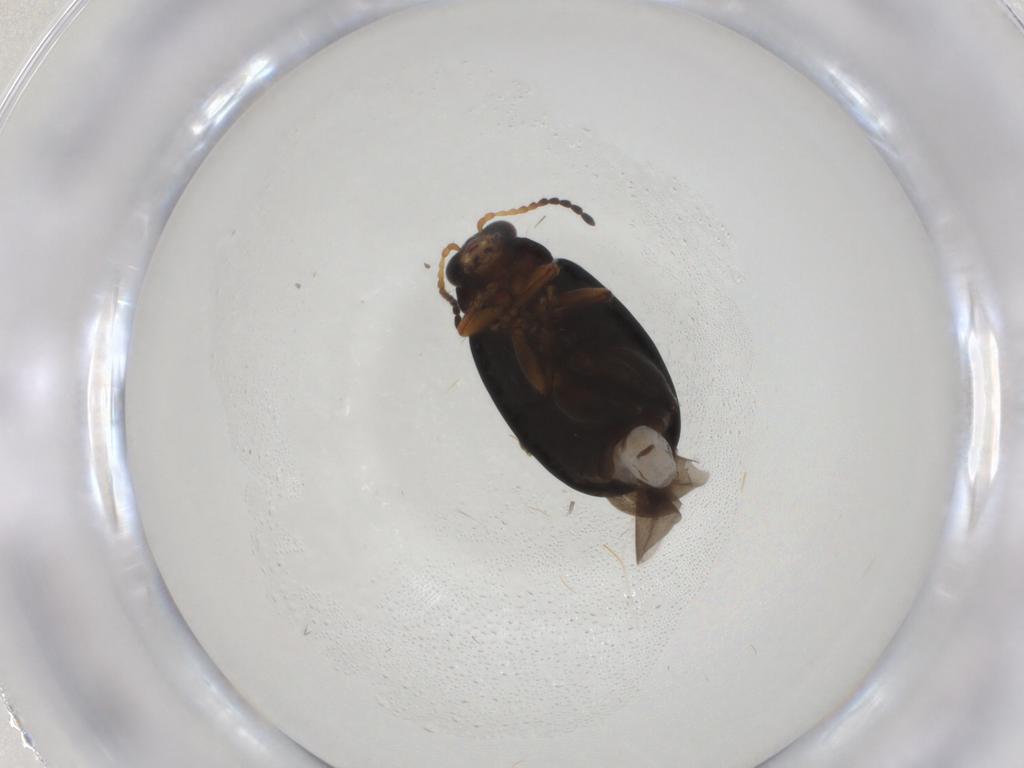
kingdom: Animalia
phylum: Arthropoda
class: Insecta
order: Coleoptera
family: Chrysomelidae
